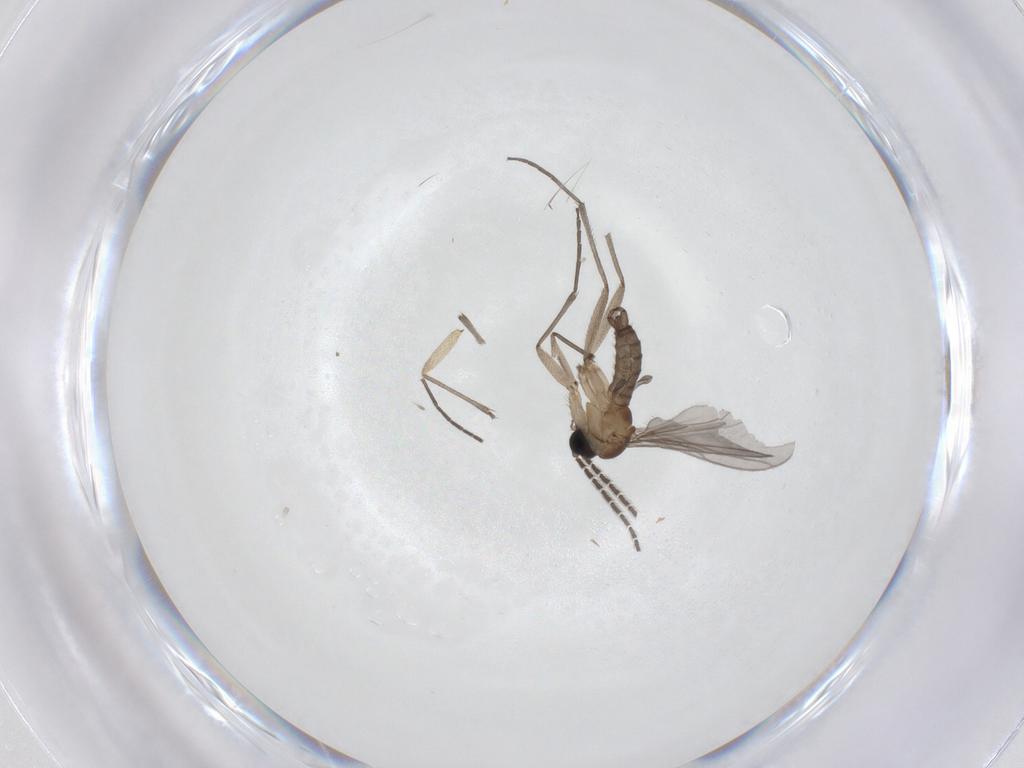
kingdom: Animalia
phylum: Arthropoda
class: Insecta
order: Diptera
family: Sciaridae
